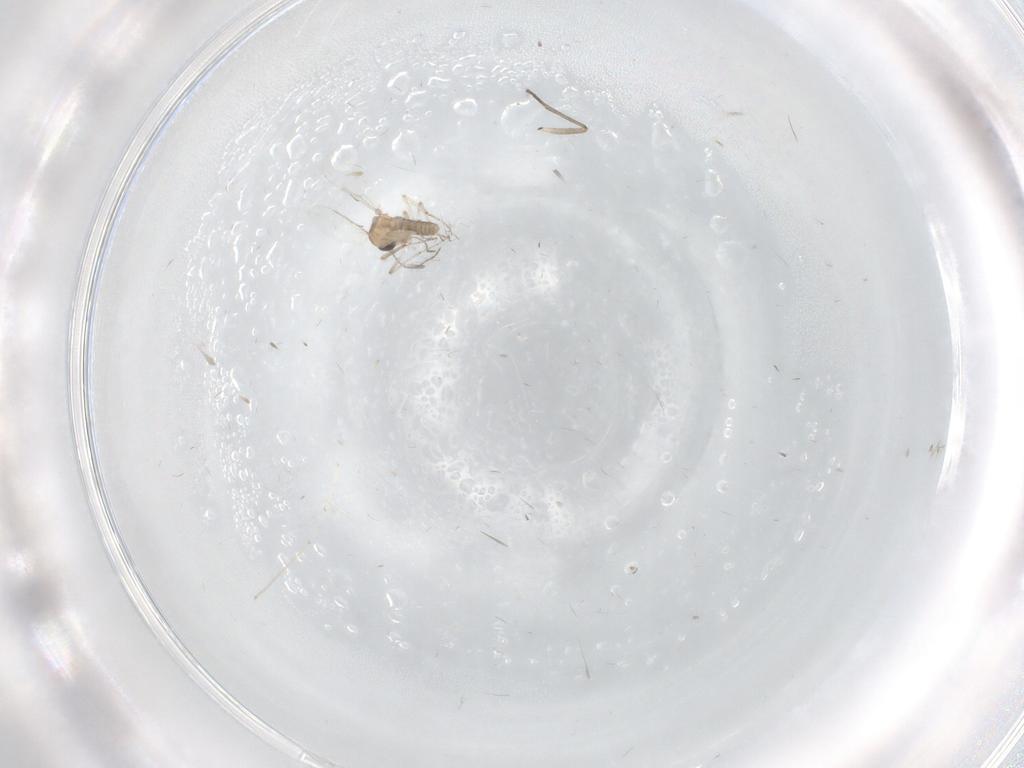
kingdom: Animalia
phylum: Arthropoda
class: Insecta
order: Diptera
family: Ceratopogonidae
